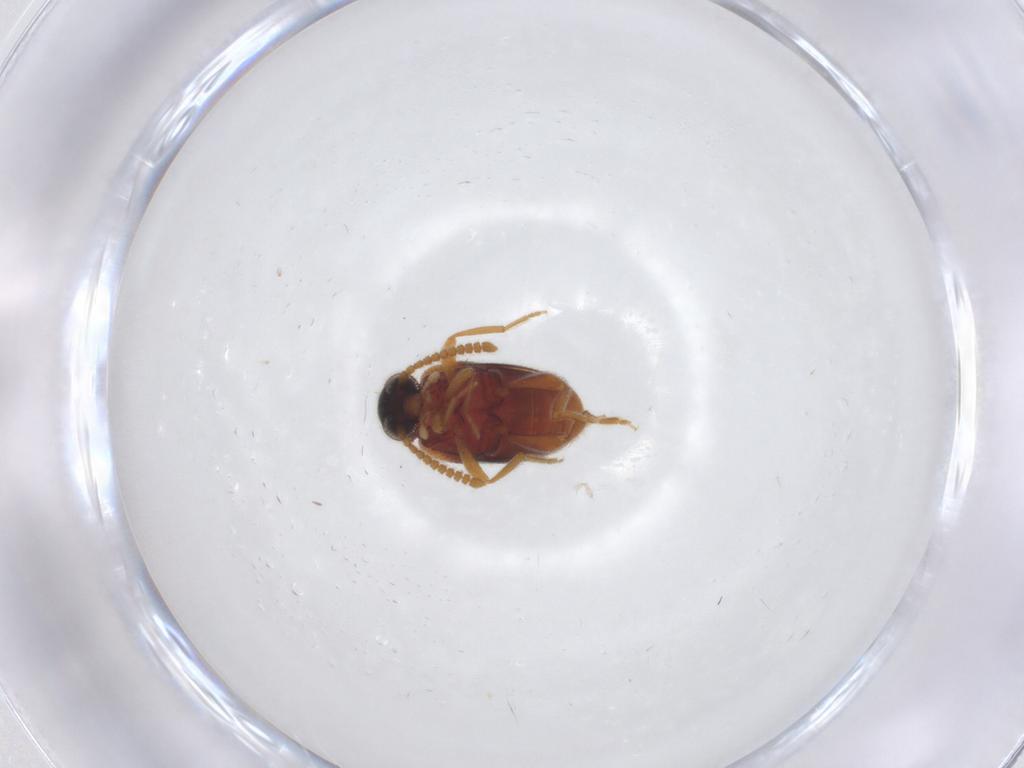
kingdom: Animalia
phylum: Arthropoda
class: Insecta
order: Coleoptera
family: Aderidae
